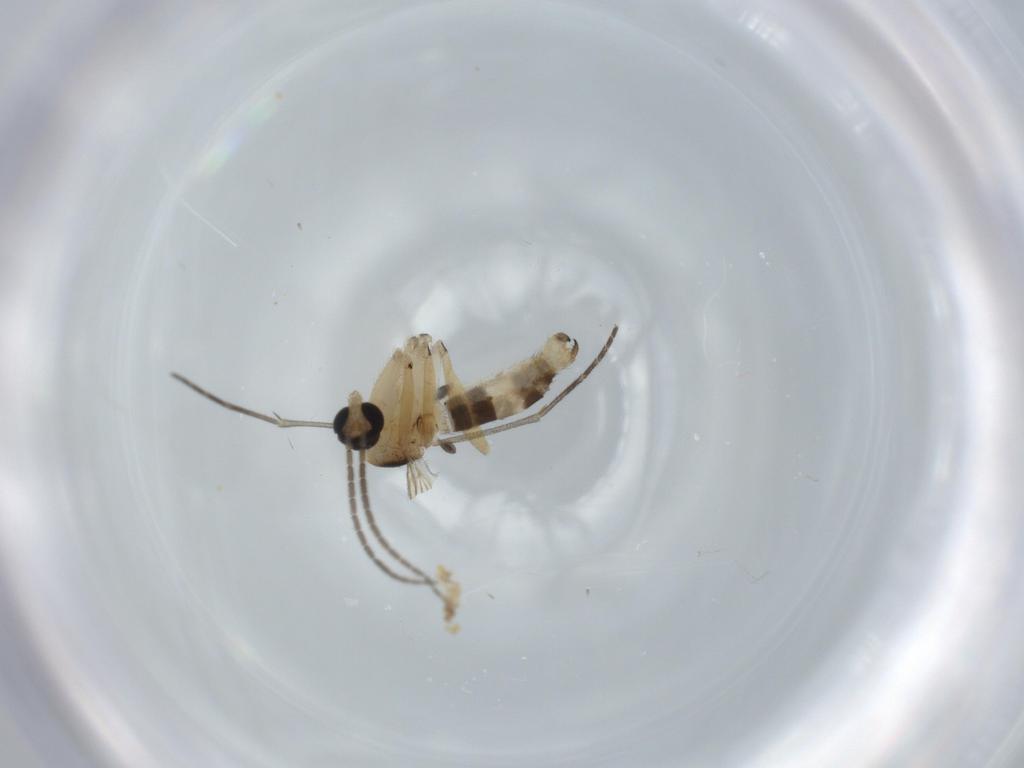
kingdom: Animalia
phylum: Arthropoda
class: Insecta
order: Diptera
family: Sciaridae
